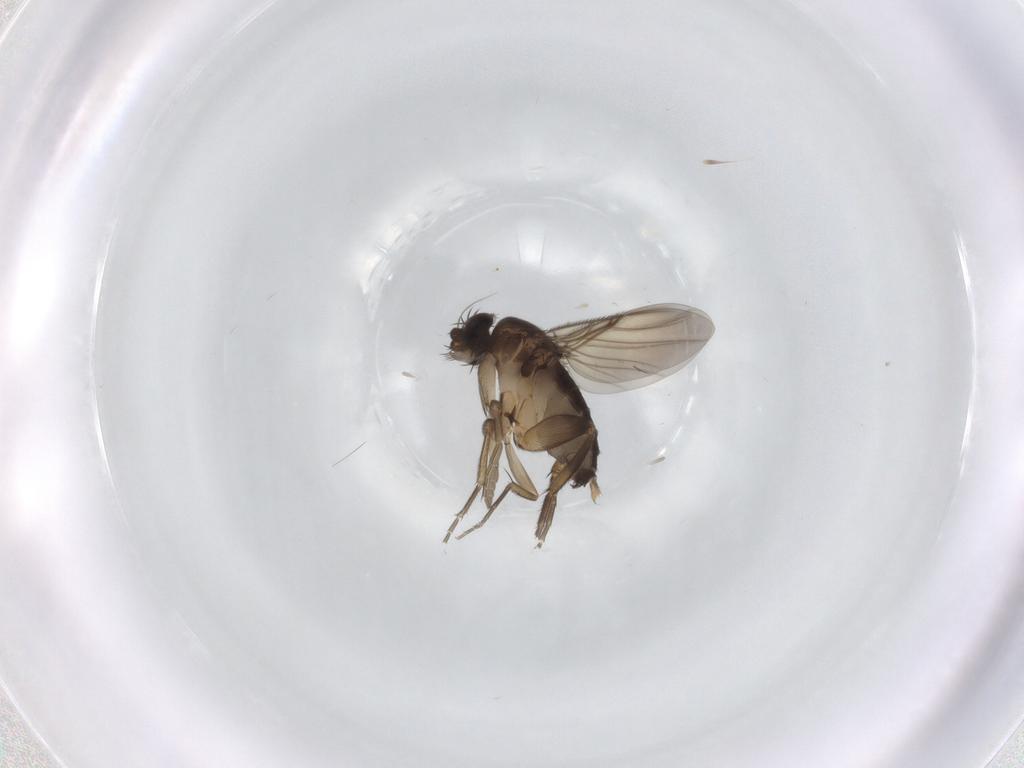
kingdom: Animalia
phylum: Arthropoda
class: Insecta
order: Diptera
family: Phoridae
